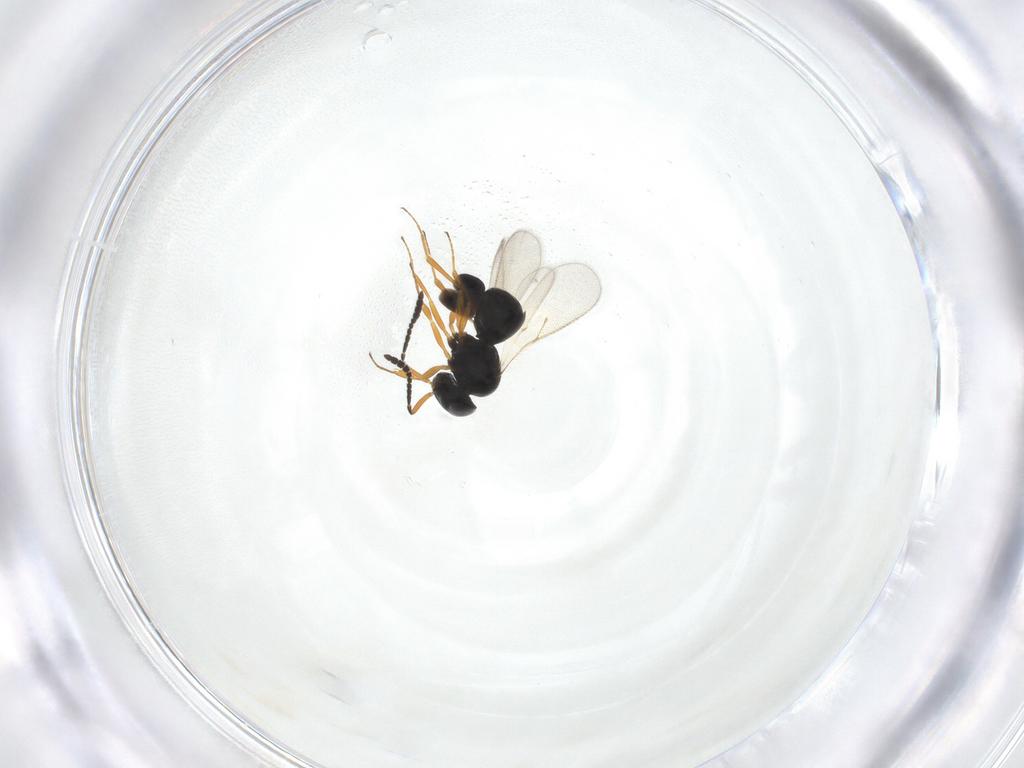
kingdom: Animalia
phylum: Arthropoda
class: Insecta
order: Hymenoptera
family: Scelionidae
